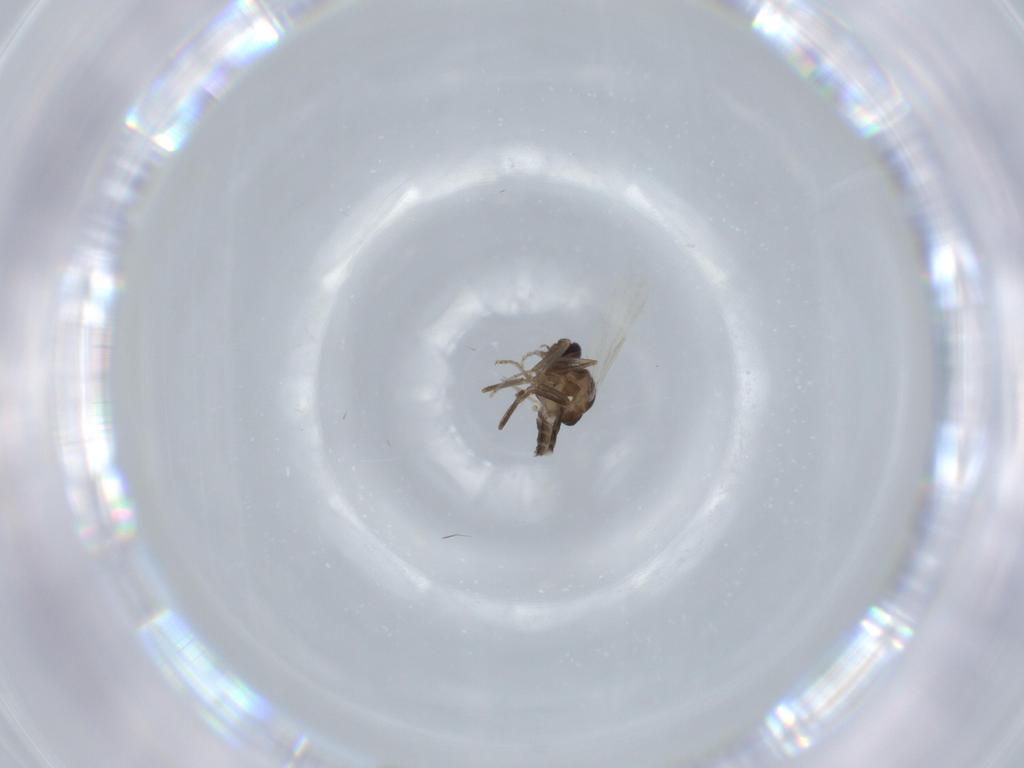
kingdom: Animalia
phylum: Arthropoda
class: Insecta
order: Diptera
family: Ceratopogonidae
